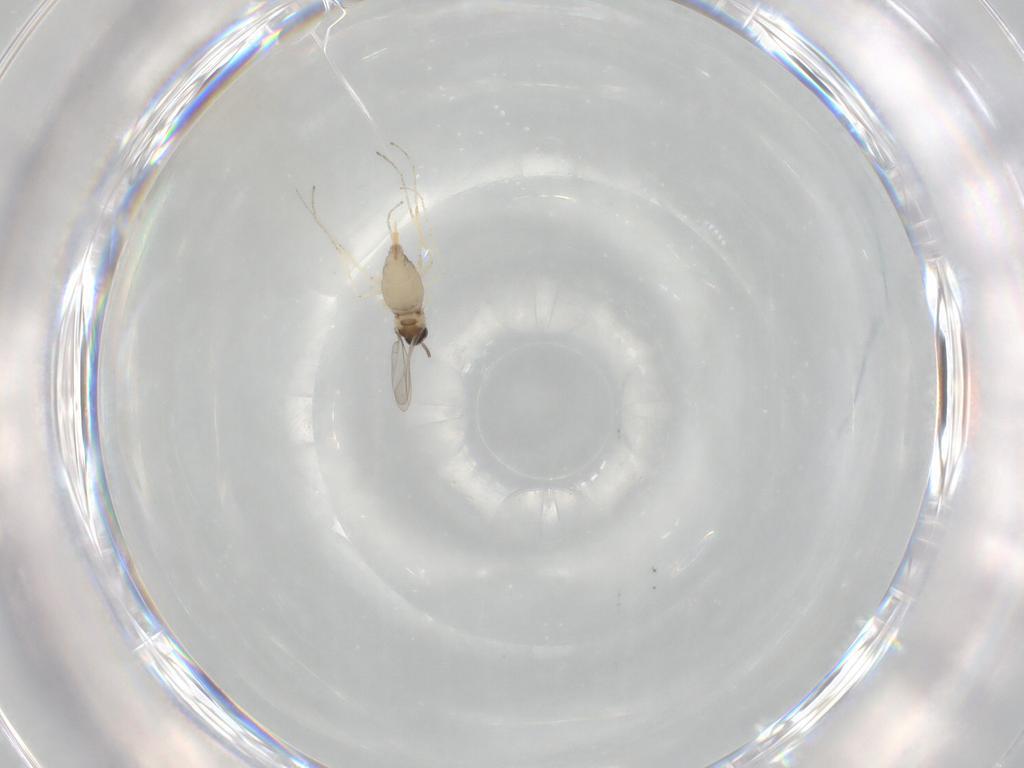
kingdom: Animalia
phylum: Arthropoda
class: Insecta
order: Diptera
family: Cecidomyiidae
